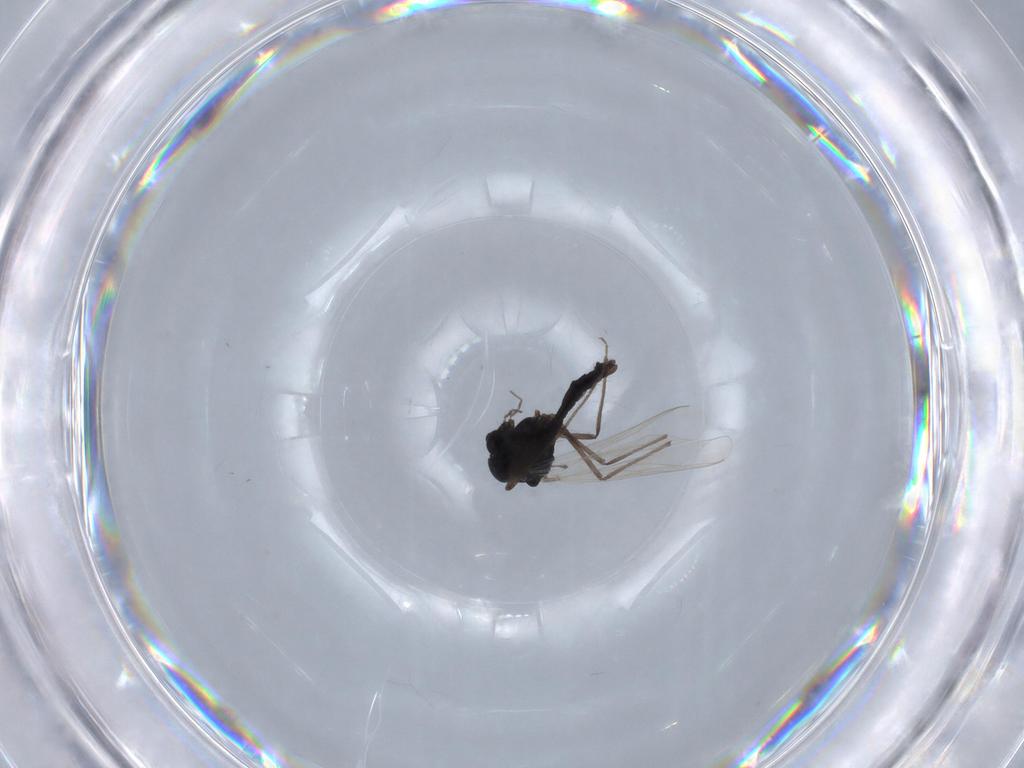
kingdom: Animalia
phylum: Arthropoda
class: Insecta
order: Diptera
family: Chironomidae
